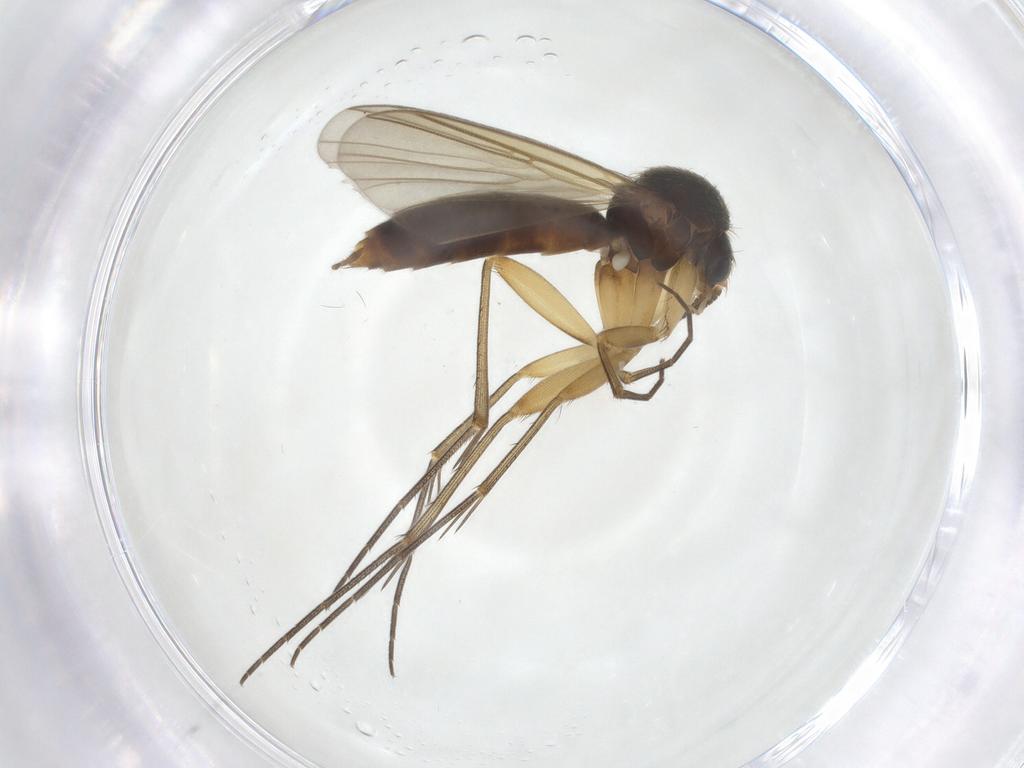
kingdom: Animalia
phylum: Arthropoda
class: Insecta
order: Diptera
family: Mycetophilidae
